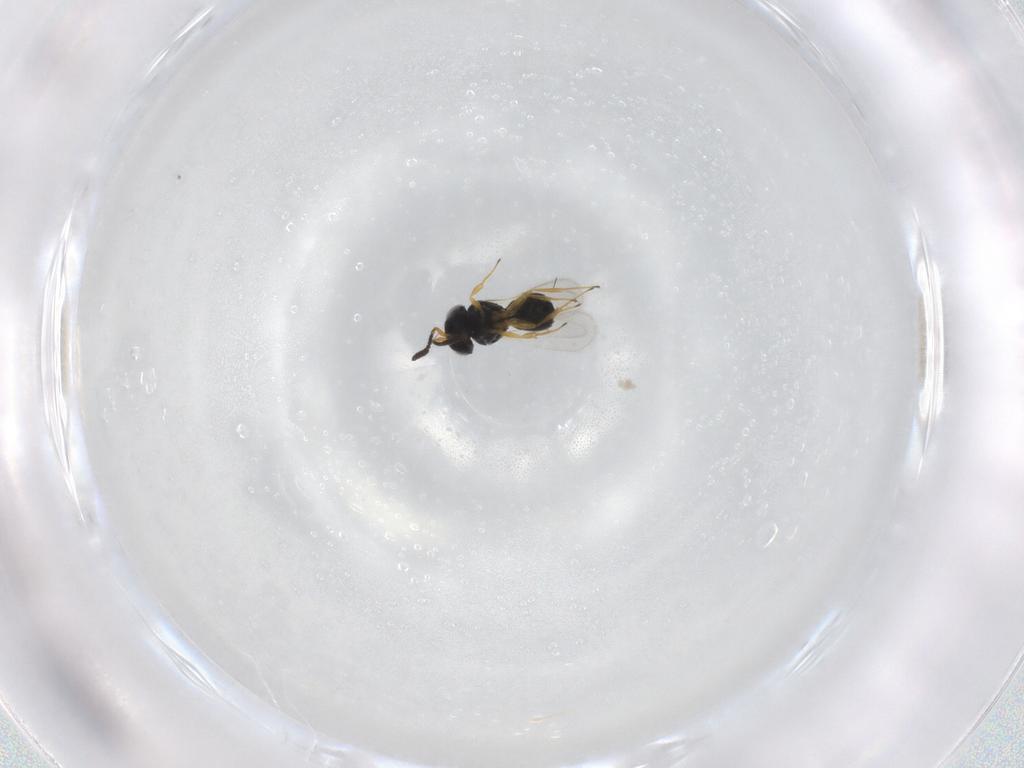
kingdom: Animalia
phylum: Arthropoda
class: Insecta
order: Hymenoptera
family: Scelionidae
